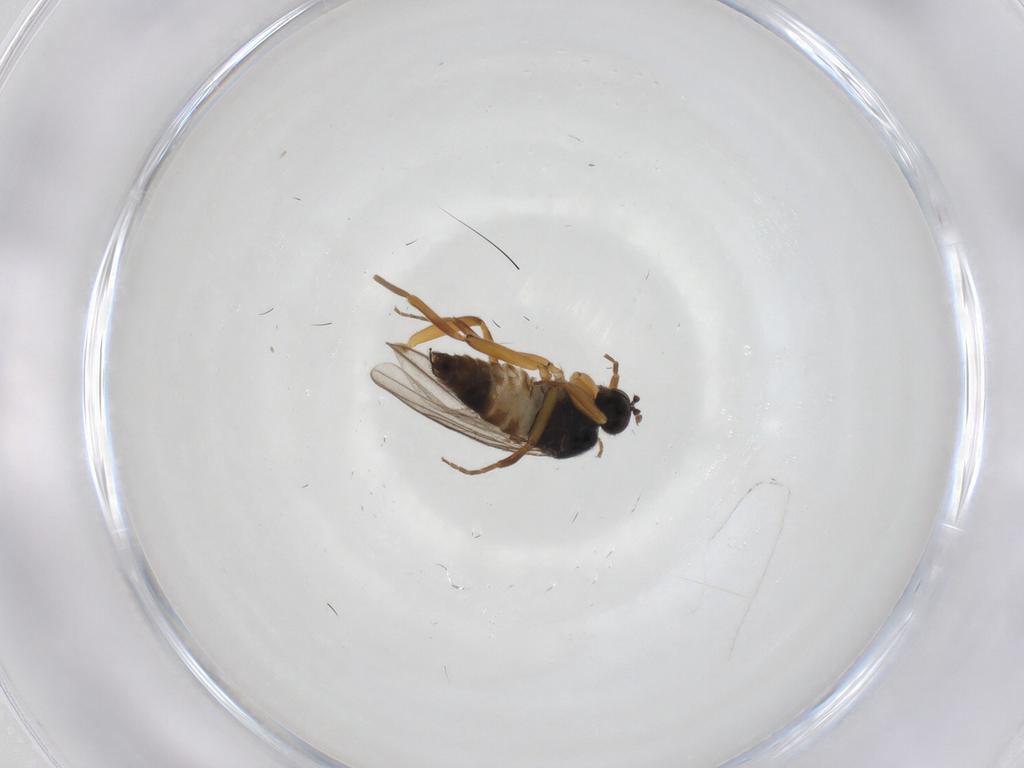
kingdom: Animalia
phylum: Arthropoda
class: Insecta
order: Diptera
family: Hybotidae
